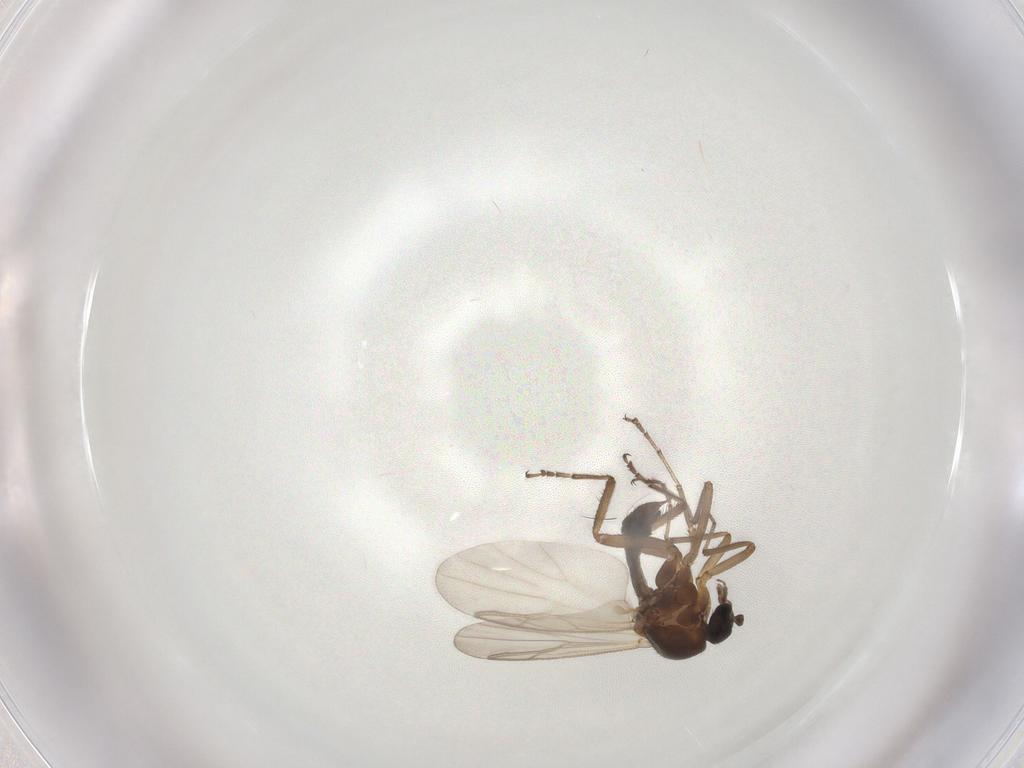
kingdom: Animalia
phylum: Arthropoda
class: Insecta
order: Diptera
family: Ceratopogonidae
